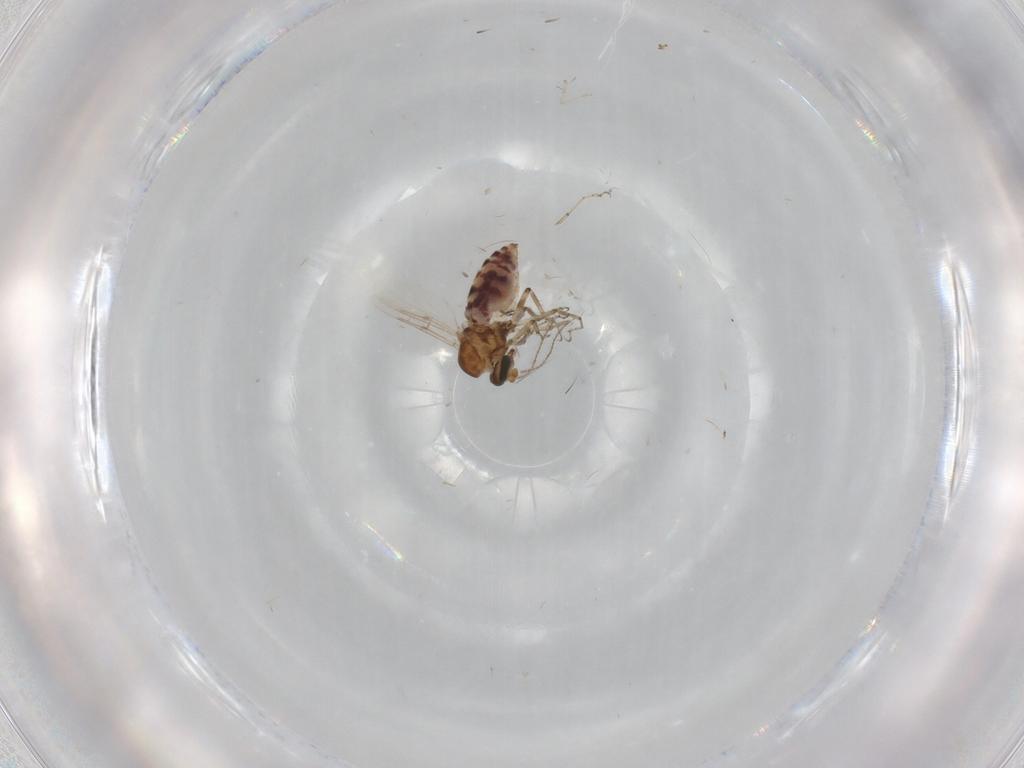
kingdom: Animalia
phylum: Arthropoda
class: Insecta
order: Diptera
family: Ceratopogonidae
